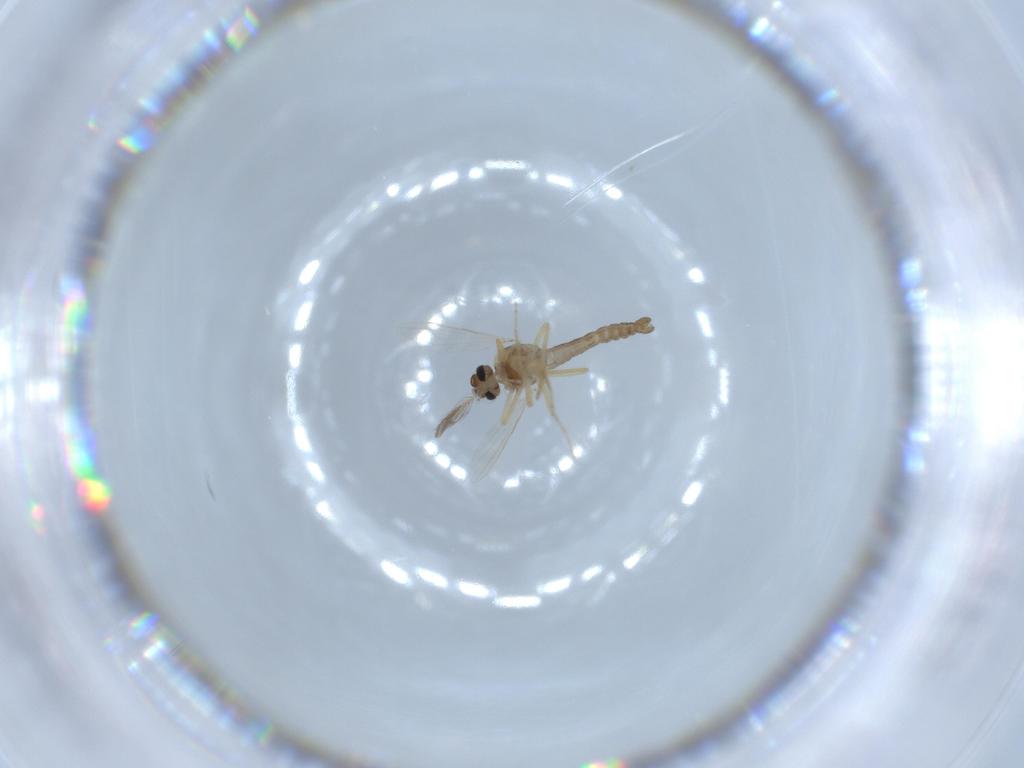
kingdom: Animalia
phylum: Arthropoda
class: Insecta
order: Diptera
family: Ceratopogonidae
